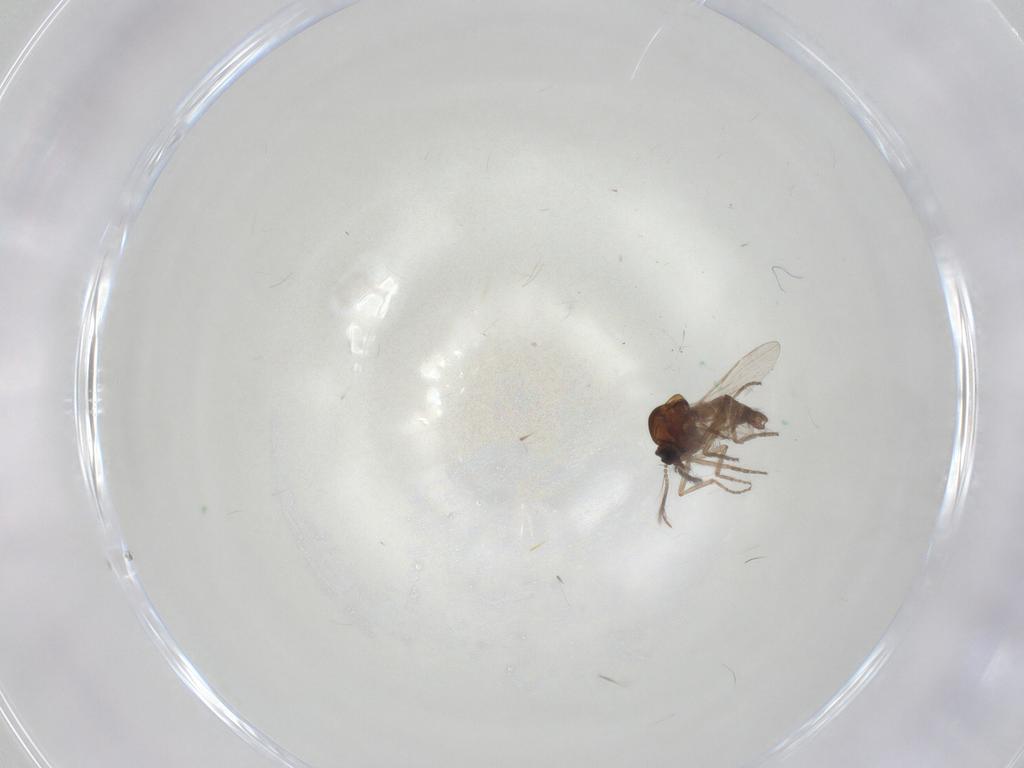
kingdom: Animalia
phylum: Arthropoda
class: Insecta
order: Diptera
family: Ceratopogonidae
